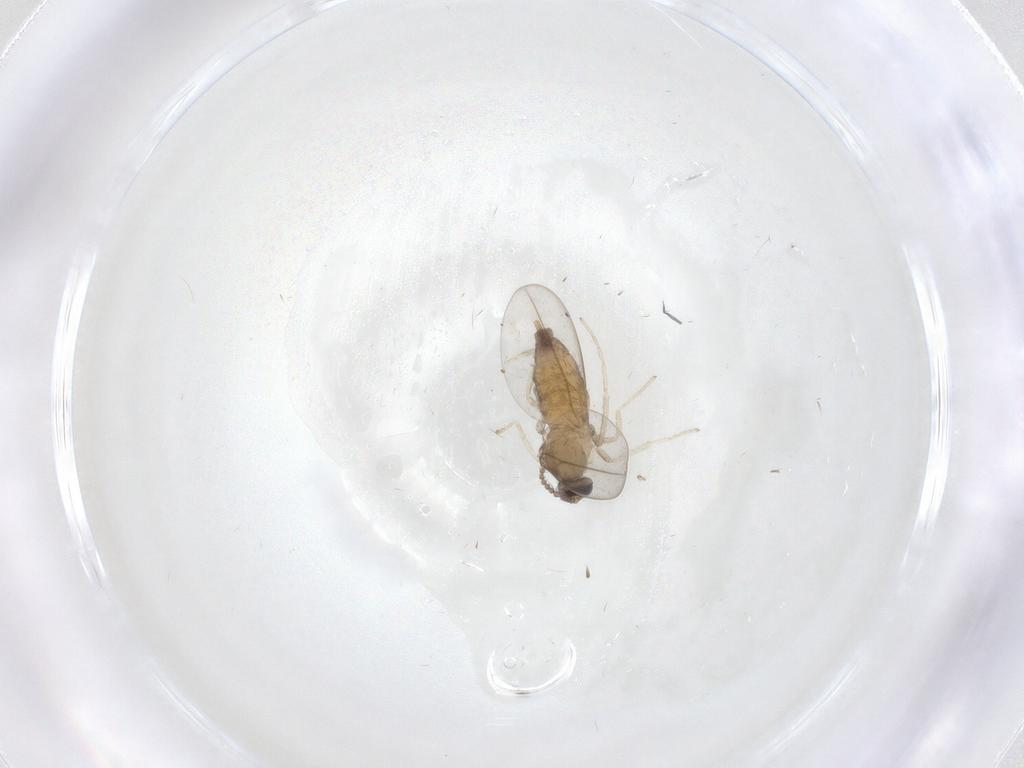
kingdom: Animalia
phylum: Arthropoda
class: Insecta
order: Diptera
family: Cecidomyiidae
